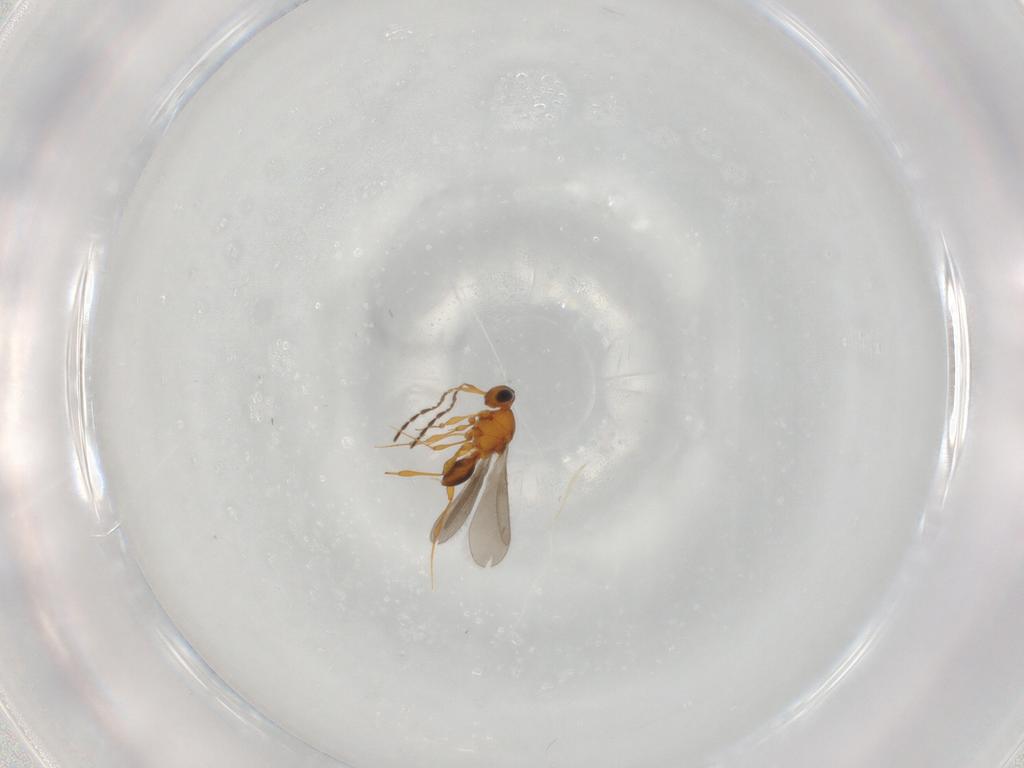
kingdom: Animalia
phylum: Arthropoda
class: Insecta
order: Hymenoptera
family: Platygastridae
